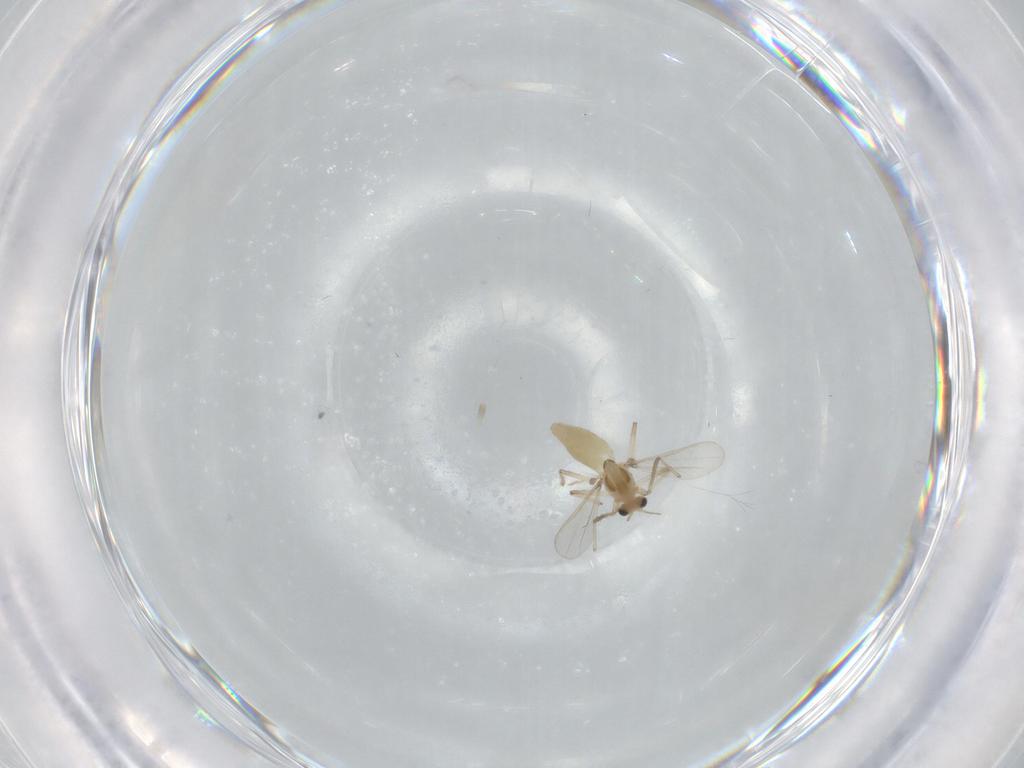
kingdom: Animalia
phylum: Arthropoda
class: Insecta
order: Diptera
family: Chironomidae
